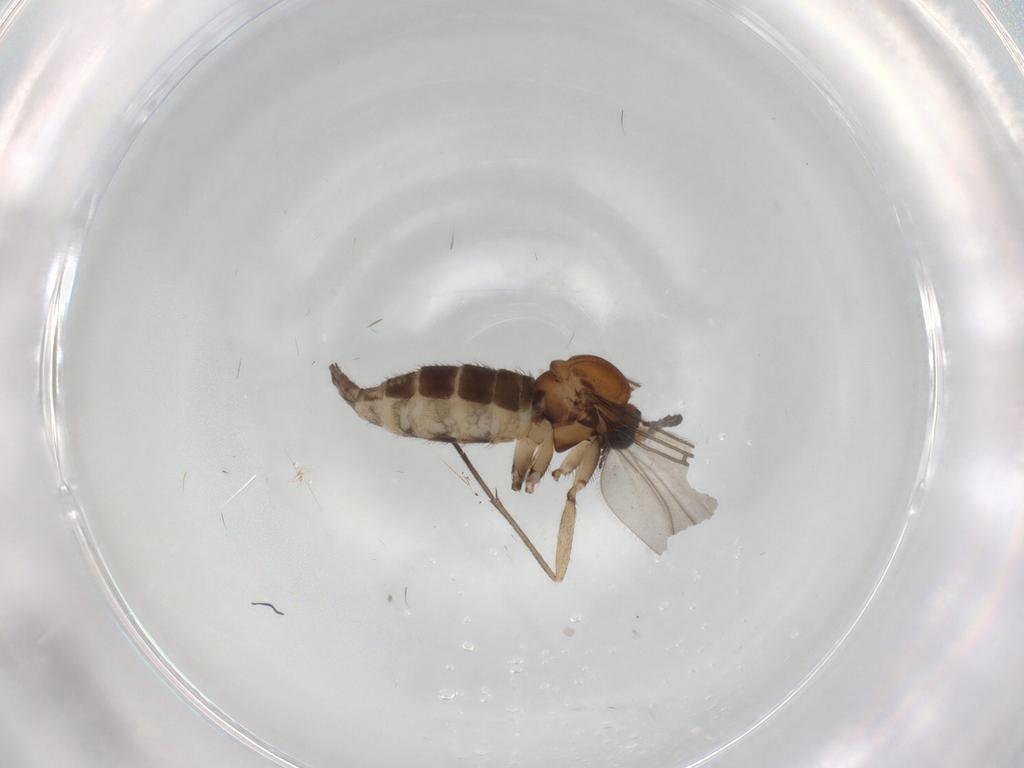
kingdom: Animalia
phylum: Arthropoda
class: Insecta
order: Diptera
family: Sciaridae
